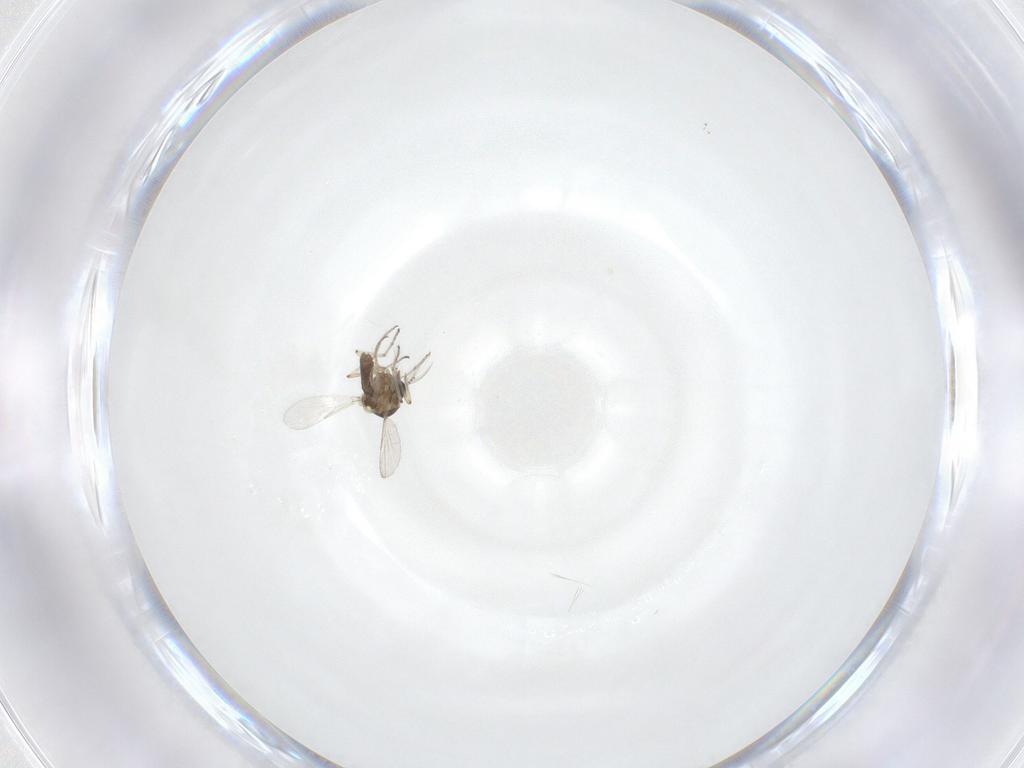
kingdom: Animalia
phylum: Arthropoda
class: Insecta
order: Diptera
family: Ceratopogonidae
